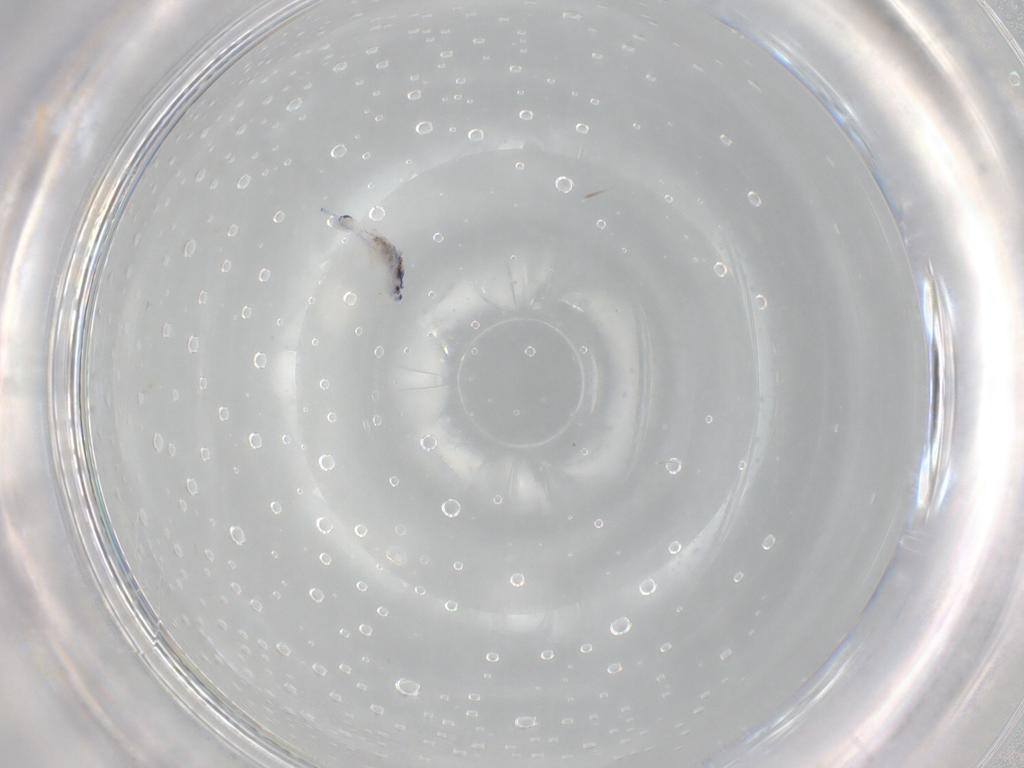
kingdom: Animalia
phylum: Arthropoda
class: Collembola
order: Entomobryomorpha
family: Entomobryidae
